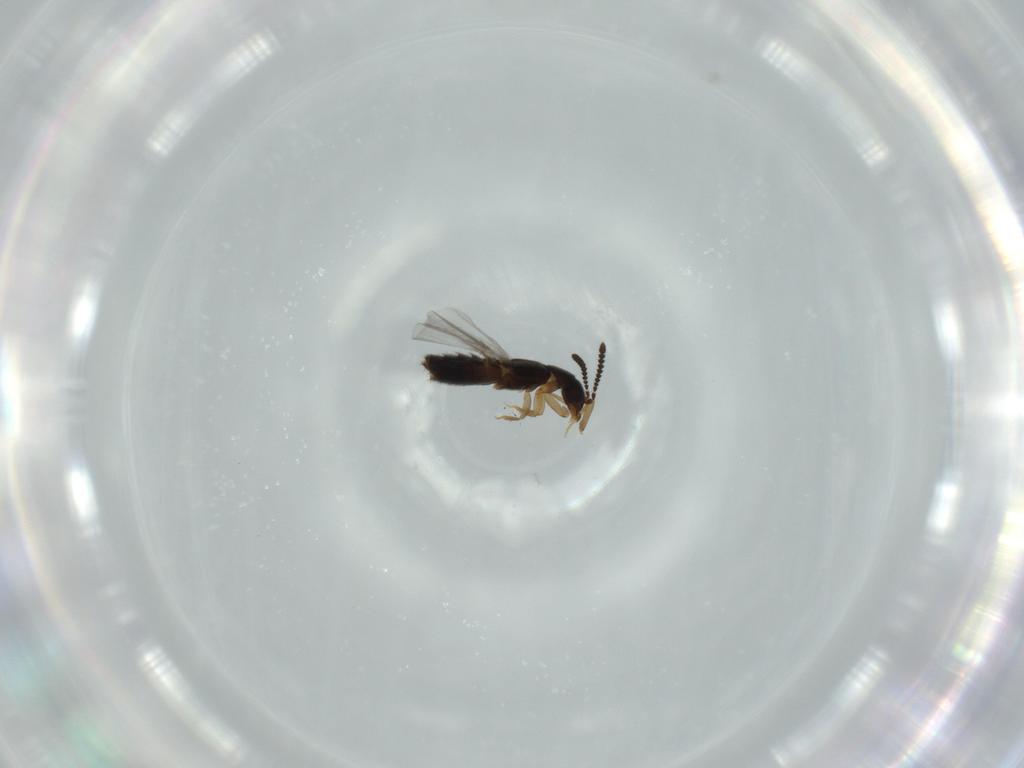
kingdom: Animalia
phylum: Arthropoda
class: Insecta
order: Coleoptera
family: Staphylinidae
